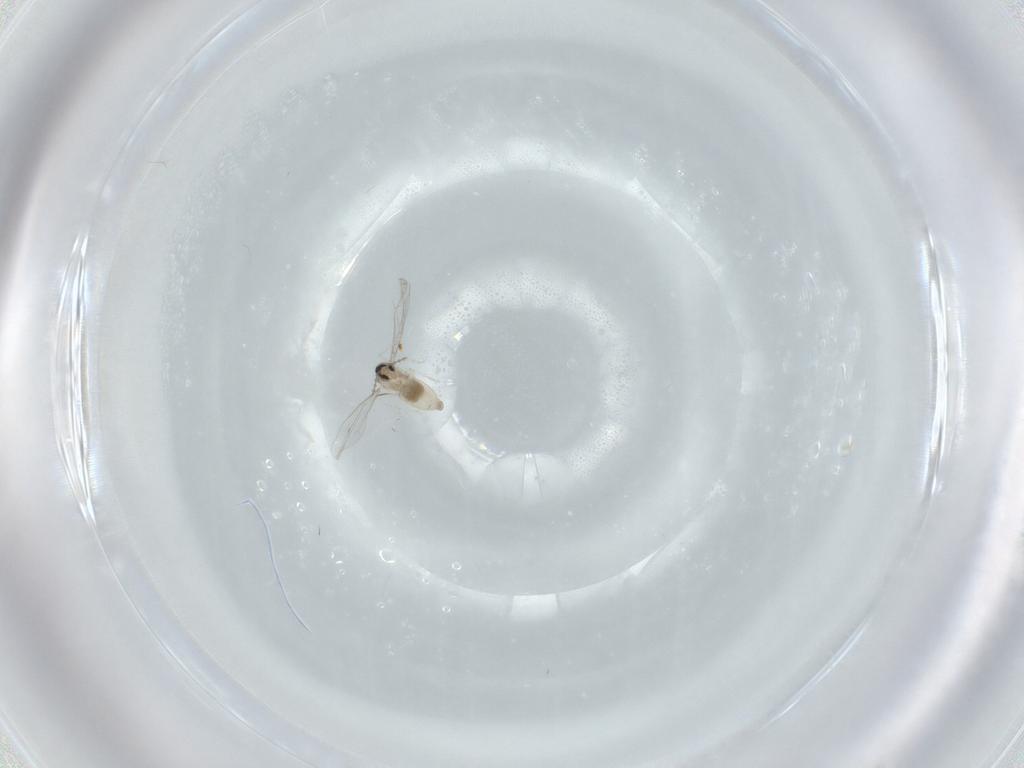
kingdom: Animalia
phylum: Arthropoda
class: Insecta
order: Diptera
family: Cecidomyiidae
